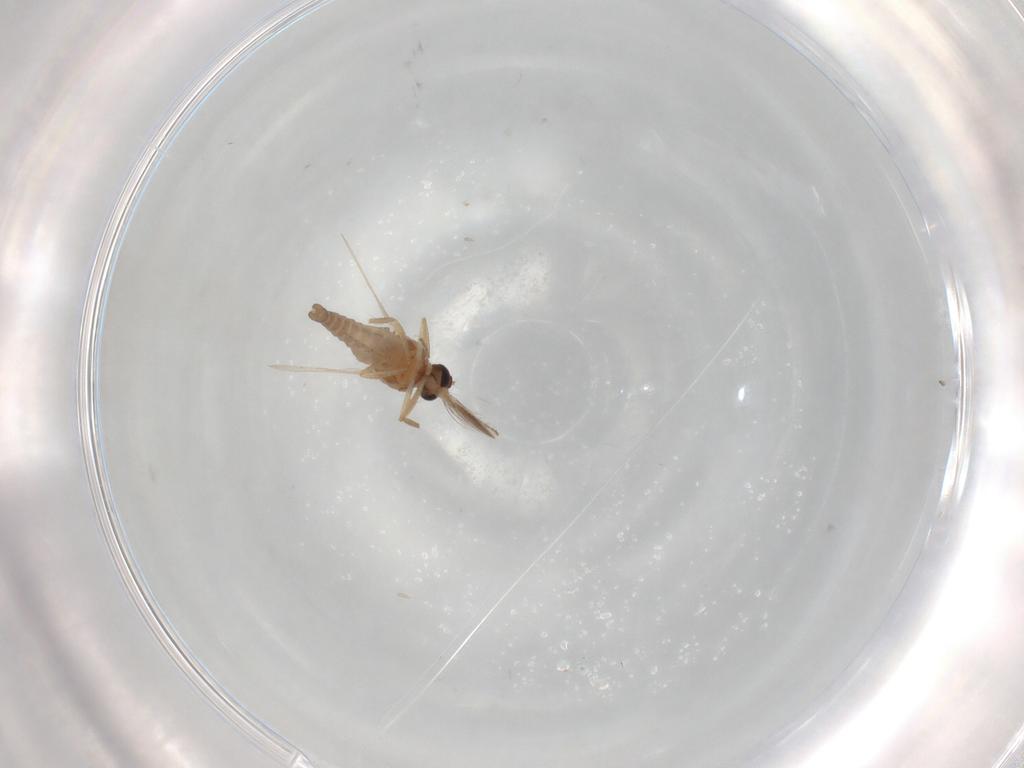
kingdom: Animalia
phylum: Arthropoda
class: Insecta
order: Diptera
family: Ceratopogonidae
